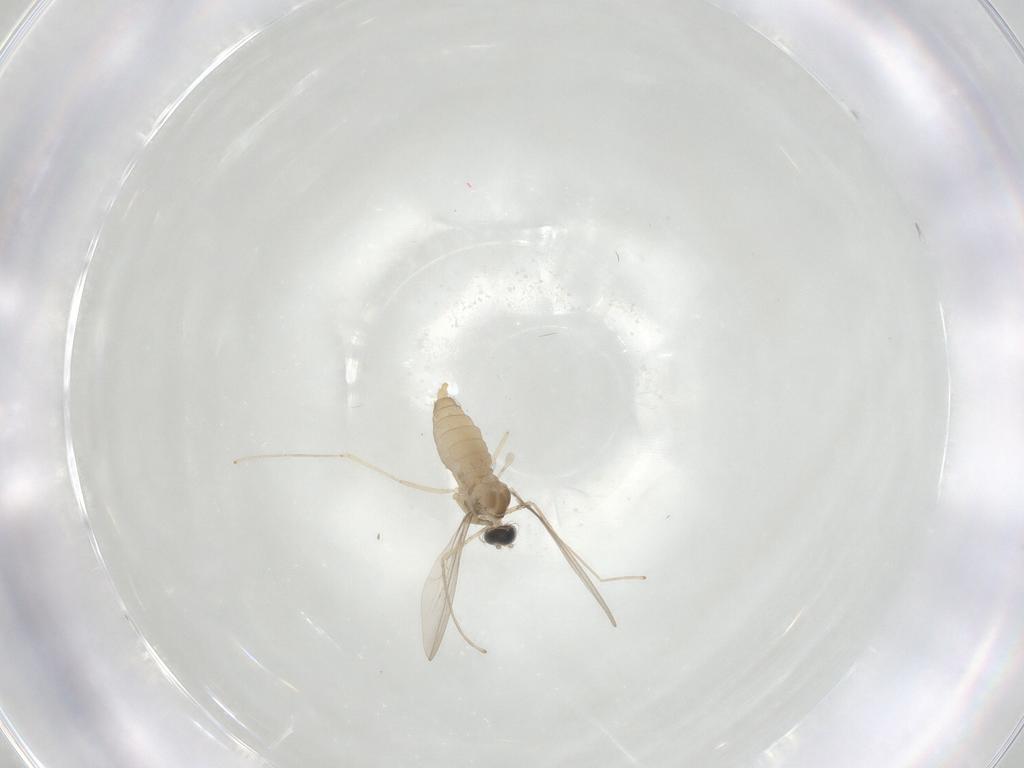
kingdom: Animalia
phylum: Arthropoda
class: Insecta
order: Diptera
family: Cecidomyiidae
